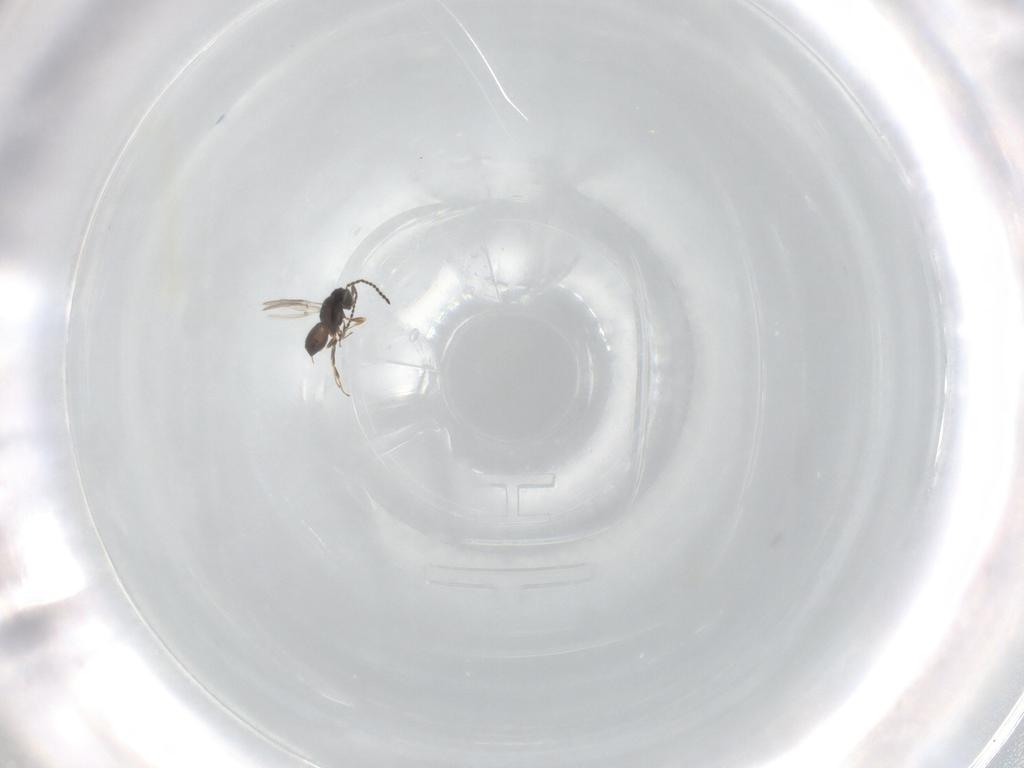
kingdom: Animalia
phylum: Arthropoda
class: Insecta
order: Hymenoptera
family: Scelionidae
